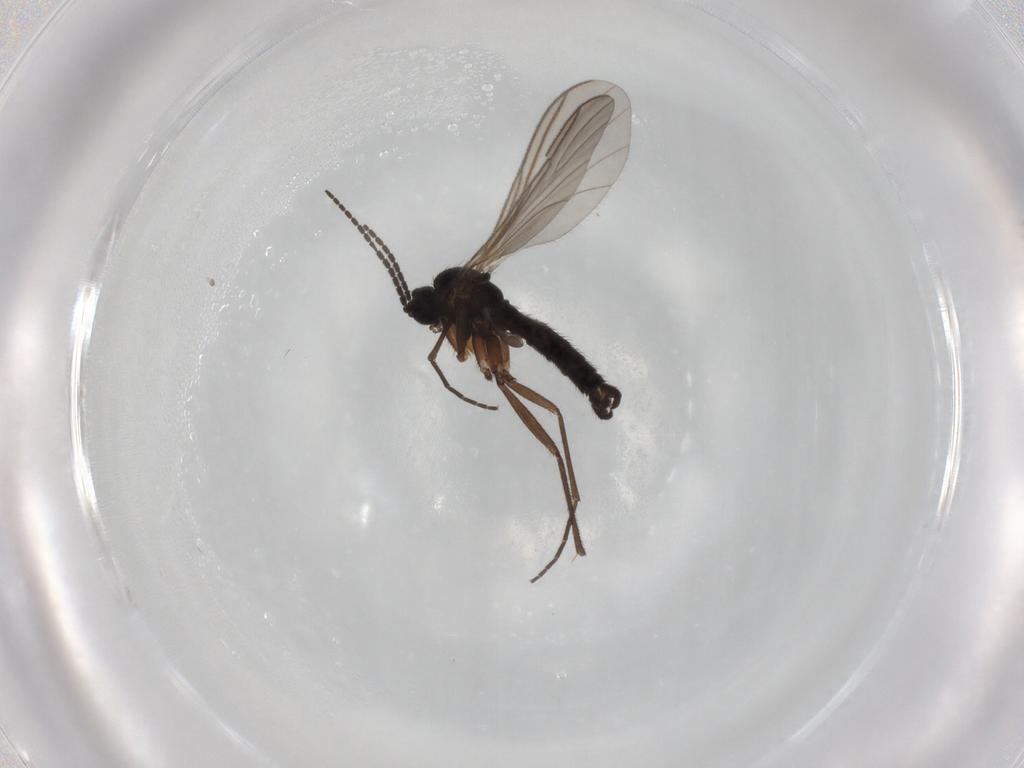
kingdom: Animalia
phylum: Arthropoda
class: Insecta
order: Diptera
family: Sciaridae
